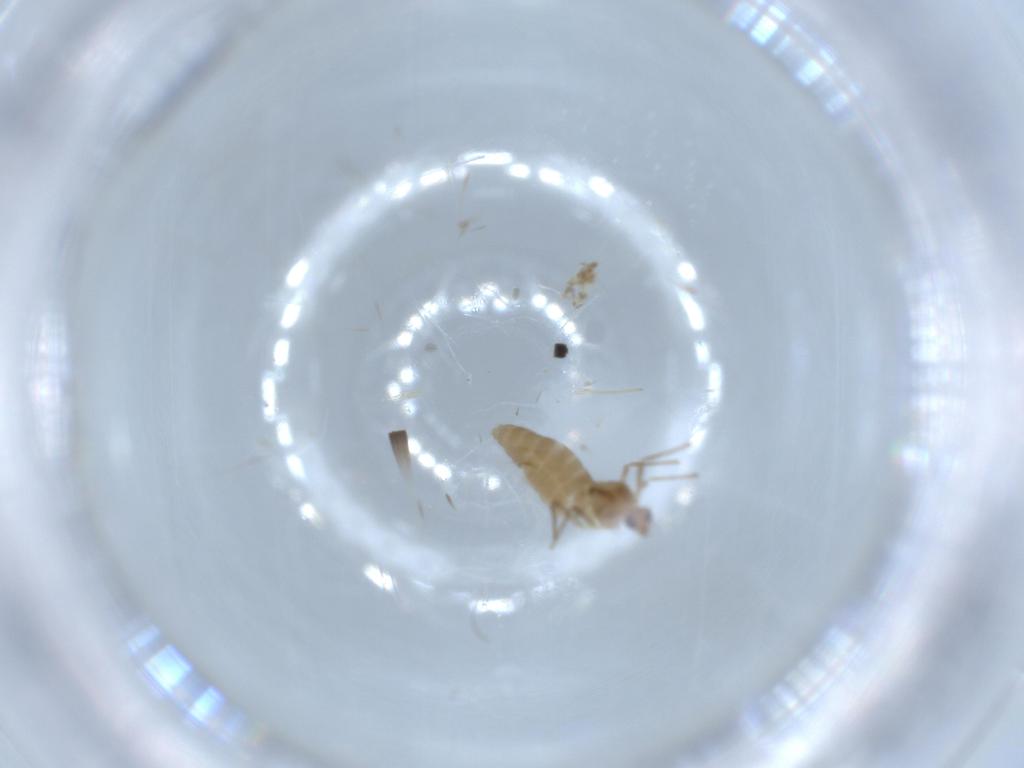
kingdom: Animalia
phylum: Arthropoda
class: Insecta
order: Diptera
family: Chironomidae
